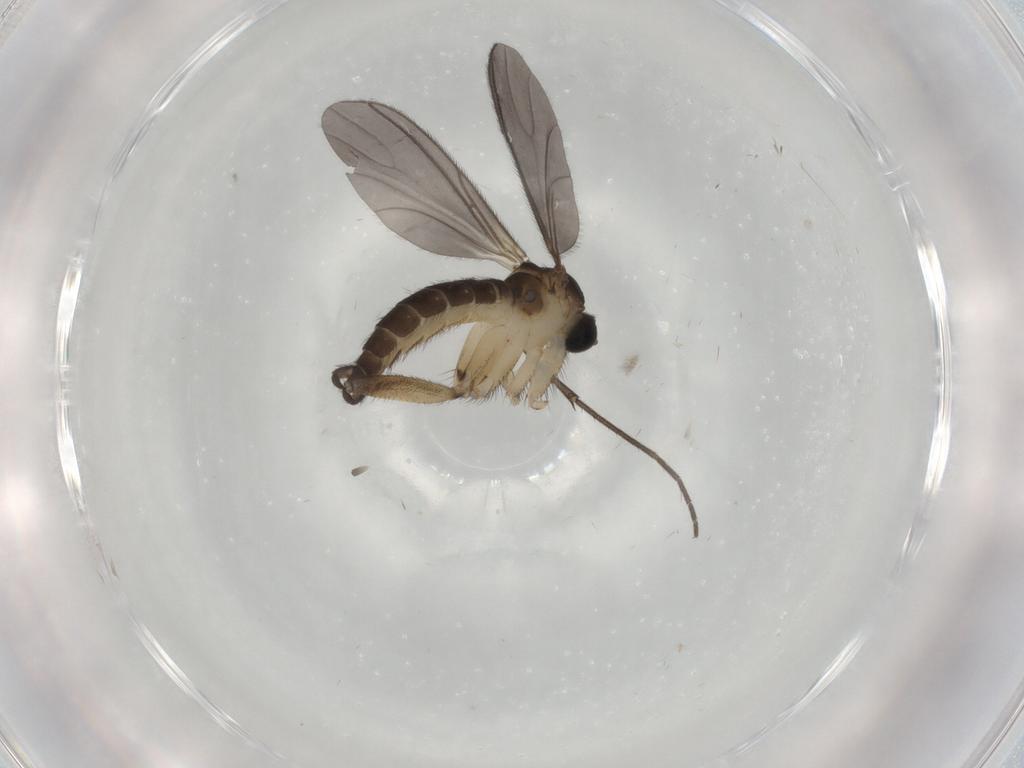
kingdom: Animalia
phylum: Arthropoda
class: Insecta
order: Diptera
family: Sciaridae
